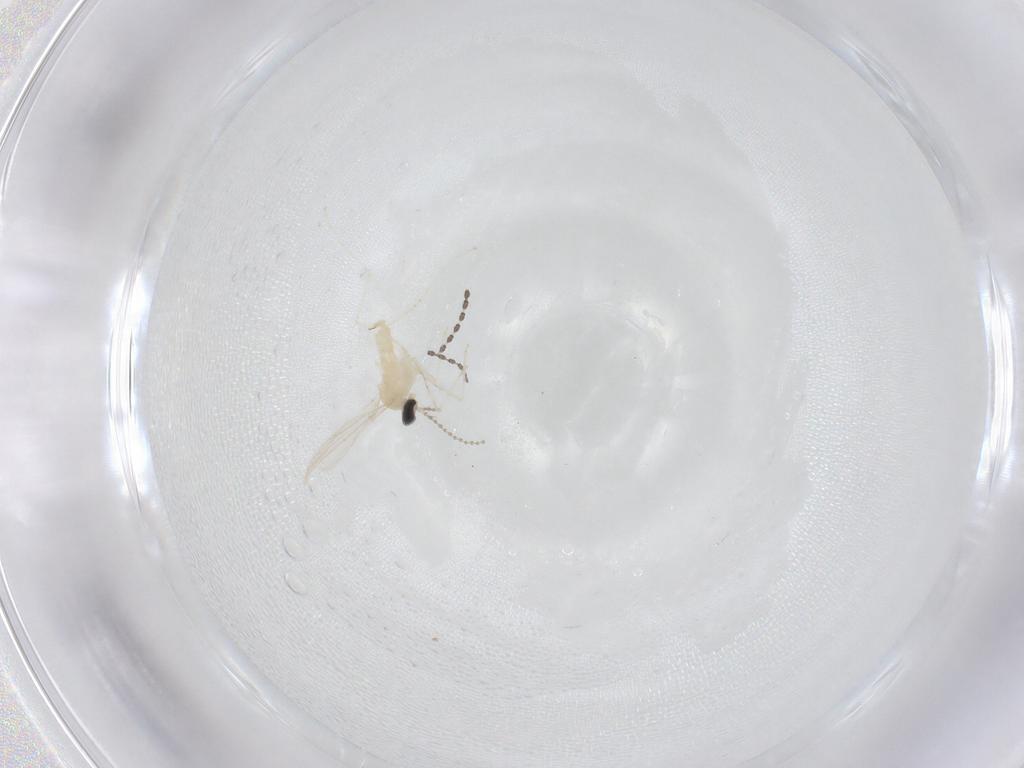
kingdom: Animalia
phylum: Arthropoda
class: Insecta
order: Diptera
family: Cecidomyiidae
